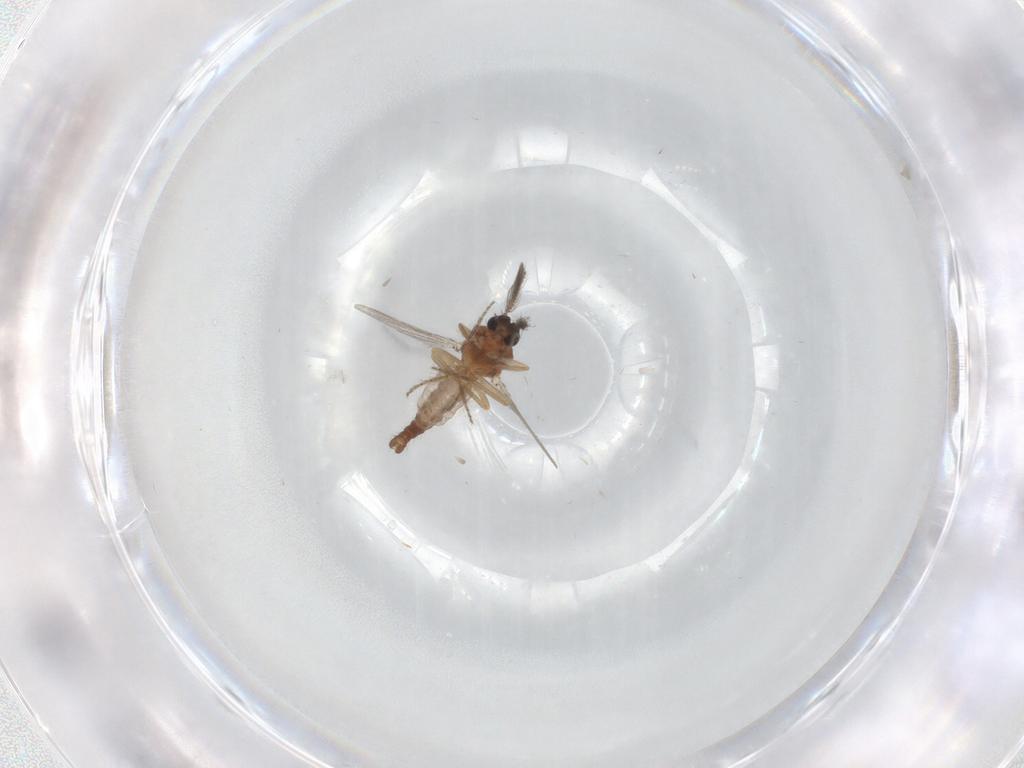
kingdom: Animalia
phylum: Arthropoda
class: Insecta
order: Diptera
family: Ceratopogonidae
